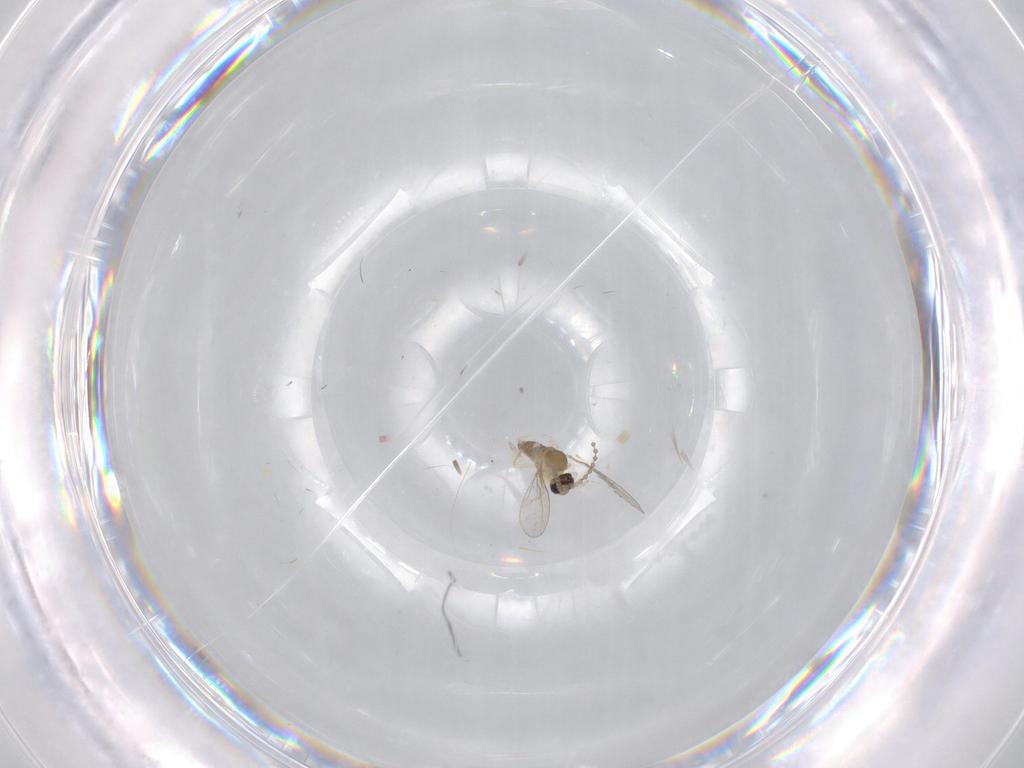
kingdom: Animalia
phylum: Arthropoda
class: Insecta
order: Diptera
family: Cecidomyiidae
